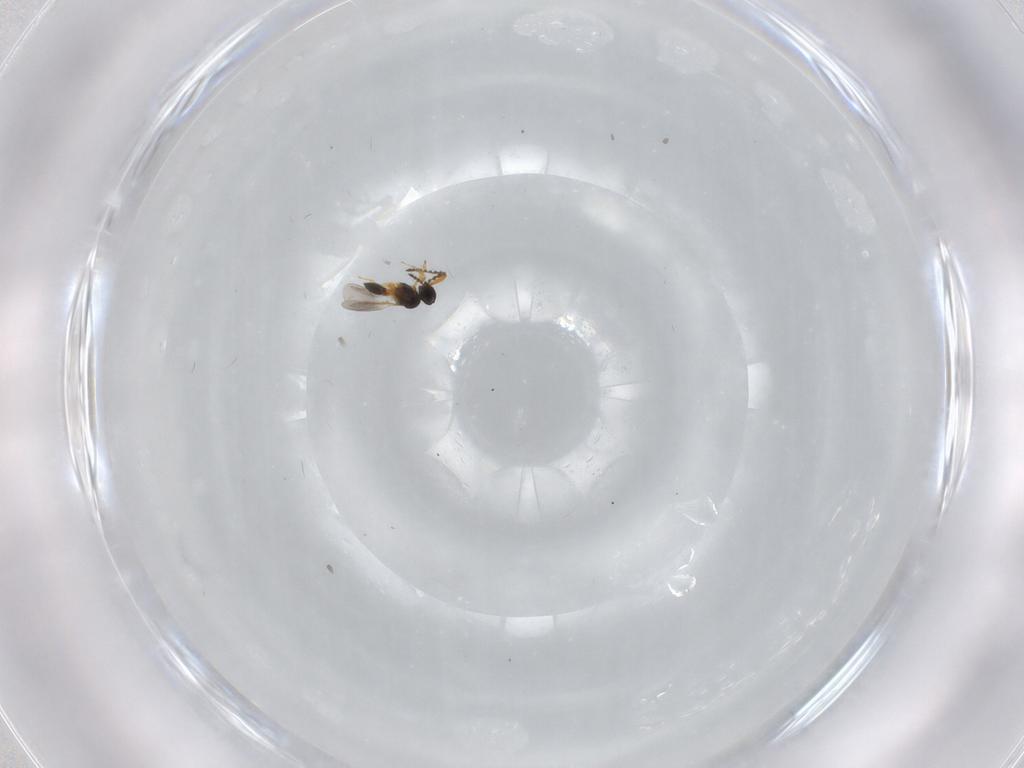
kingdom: Animalia
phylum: Arthropoda
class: Insecta
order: Hymenoptera
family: Platygastridae
